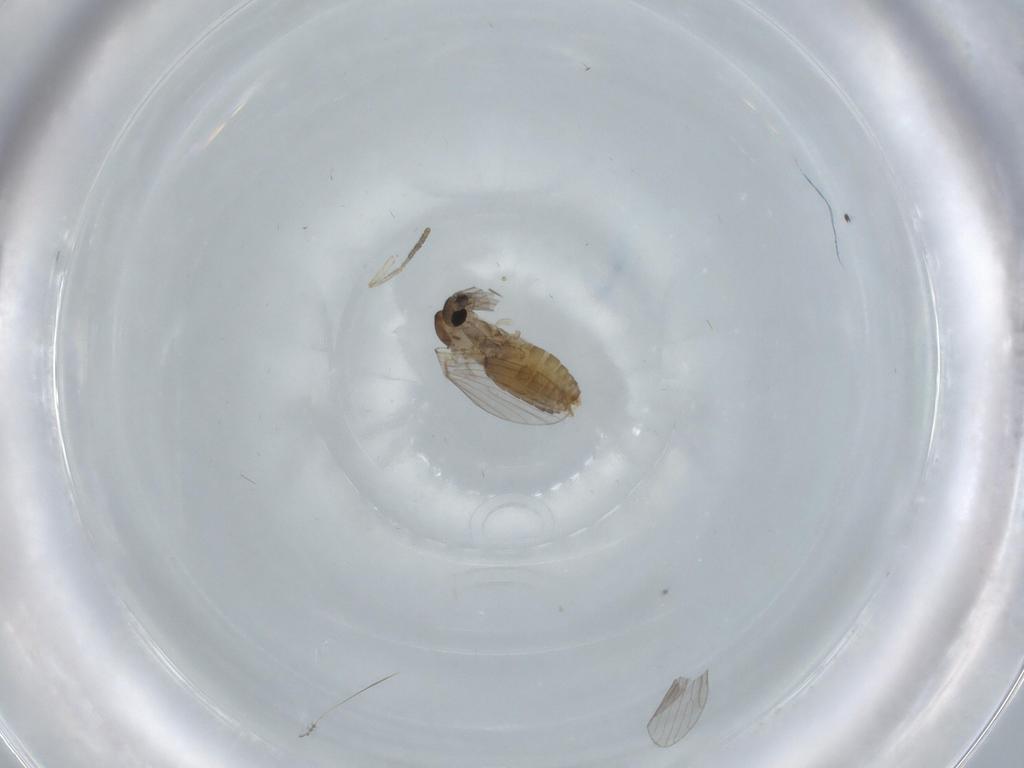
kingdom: Animalia
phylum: Arthropoda
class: Insecta
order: Diptera
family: Psychodidae
